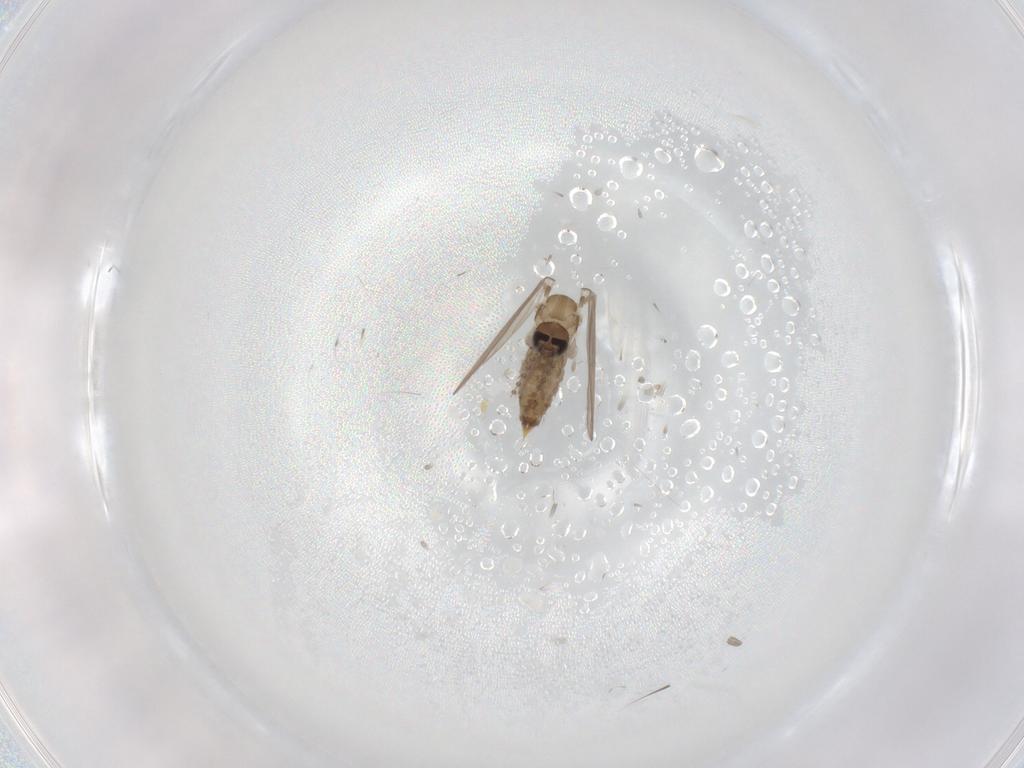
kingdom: Animalia
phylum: Arthropoda
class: Insecta
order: Diptera
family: Psychodidae
